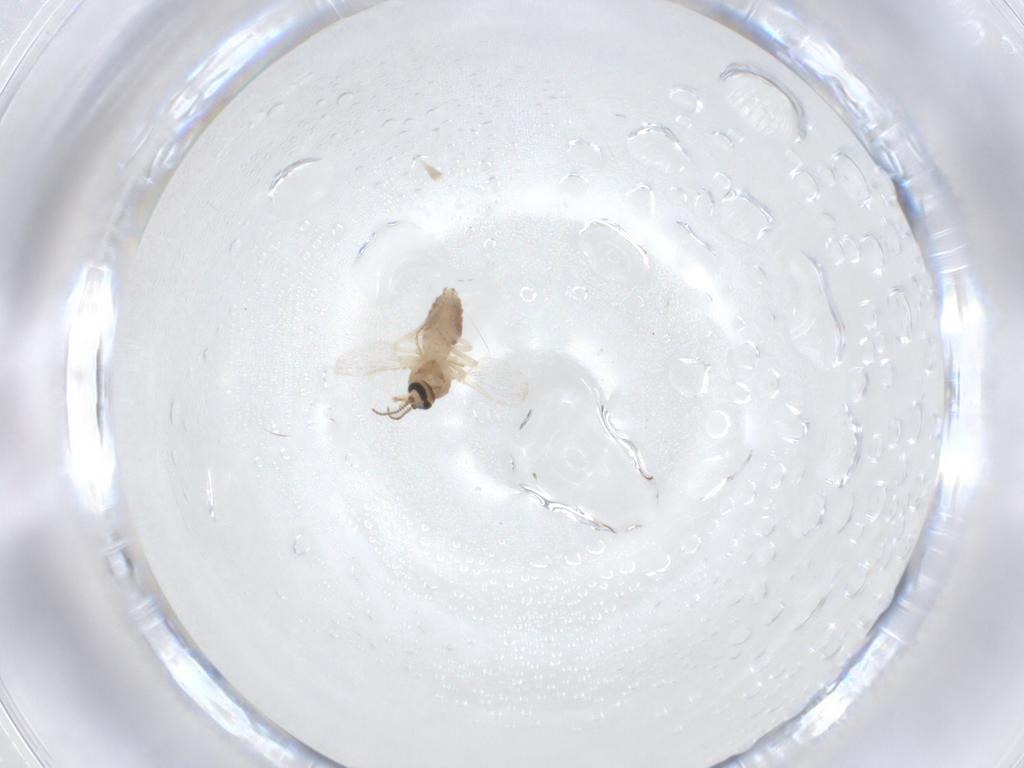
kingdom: Animalia
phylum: Arthropoda
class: Insecta
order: Diptera
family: Ceratopogonidae
